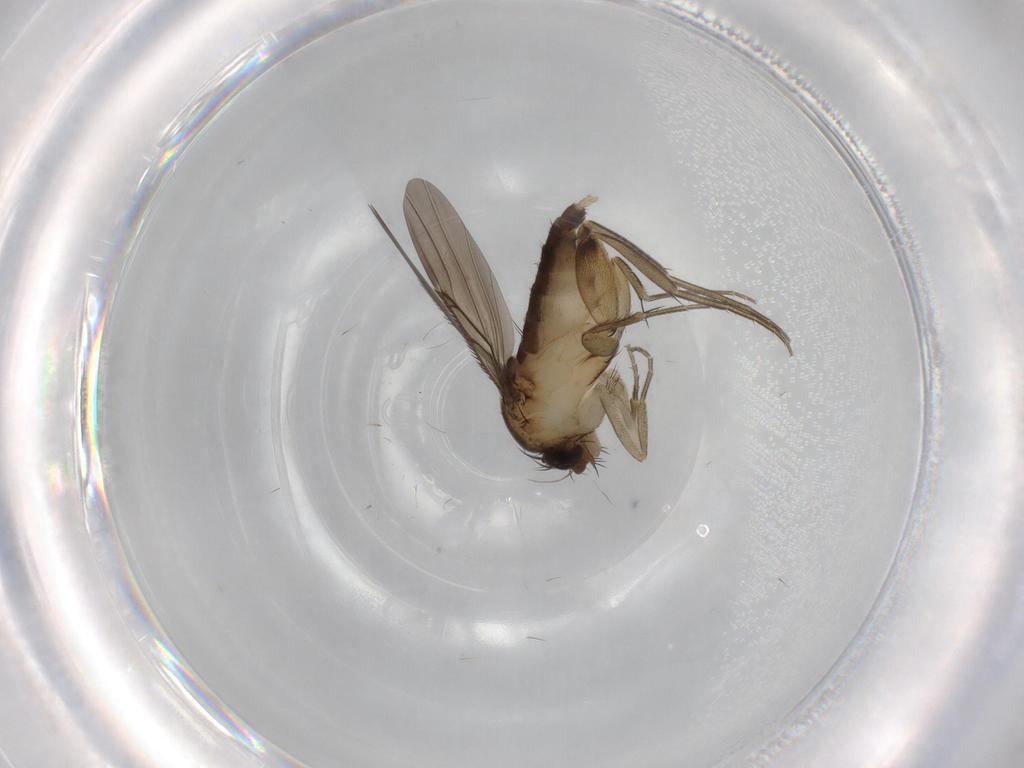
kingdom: Animalia
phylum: Arthropoda
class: Insecta
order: Diptera
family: Phoridae
